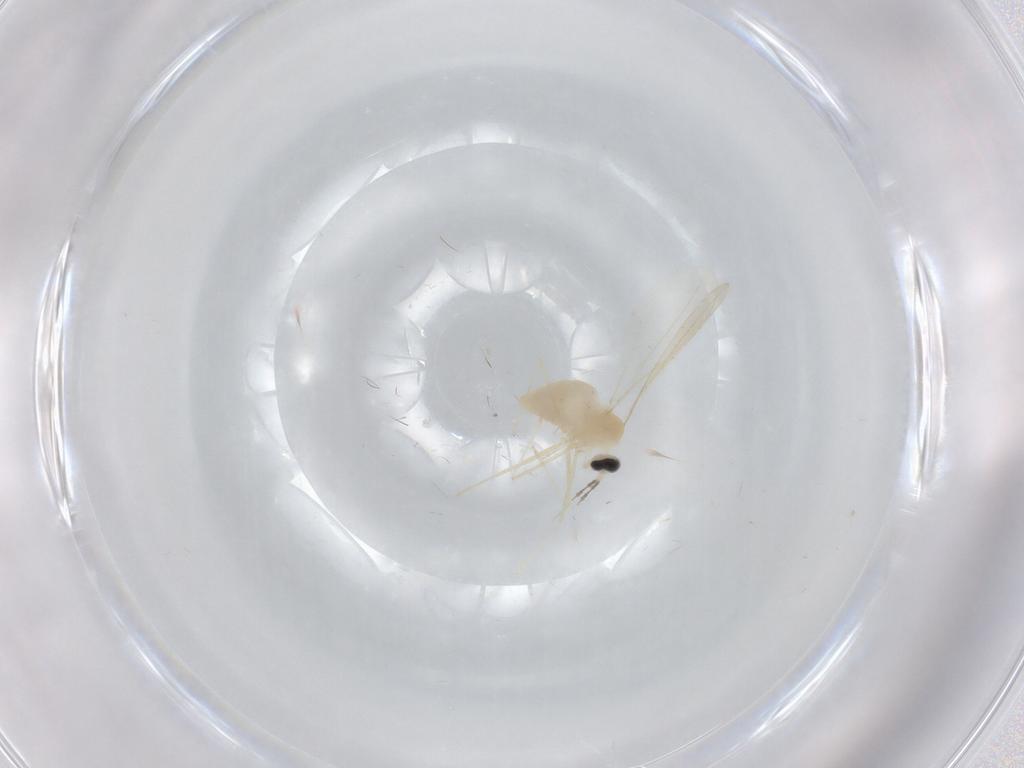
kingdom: Animalia
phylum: Arthropoda
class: Insecta
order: Diptera
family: Cecidomyiidae
